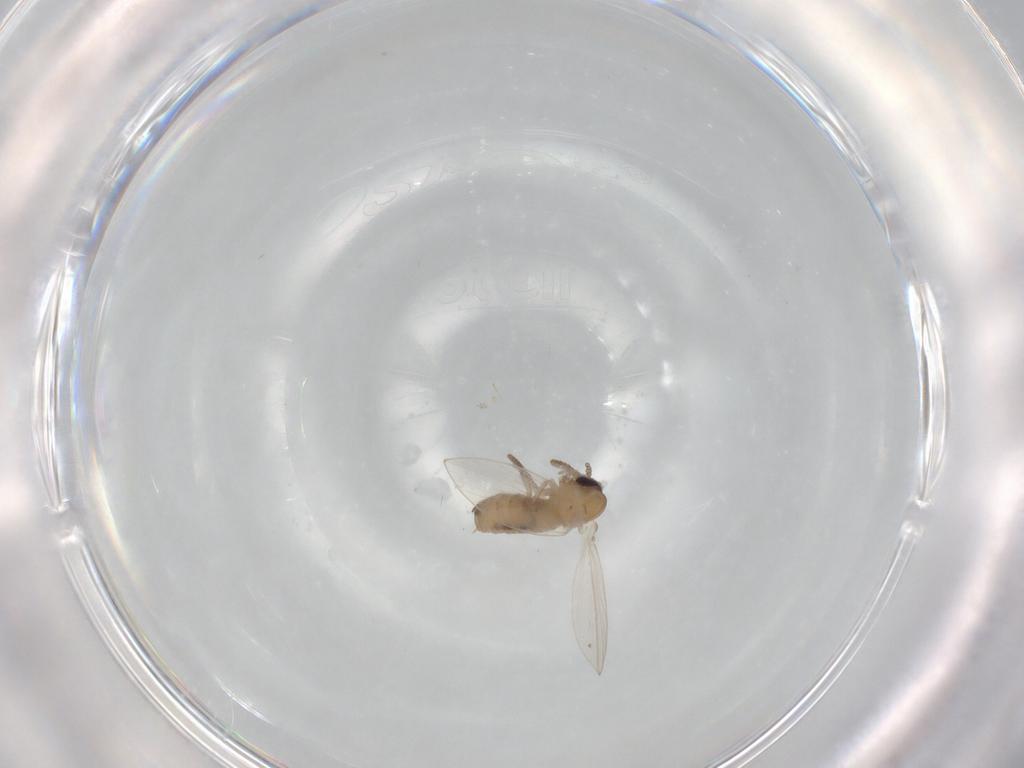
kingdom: Animalia
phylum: Arthropoda
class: Insecta
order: Diptera
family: Psychodidae
